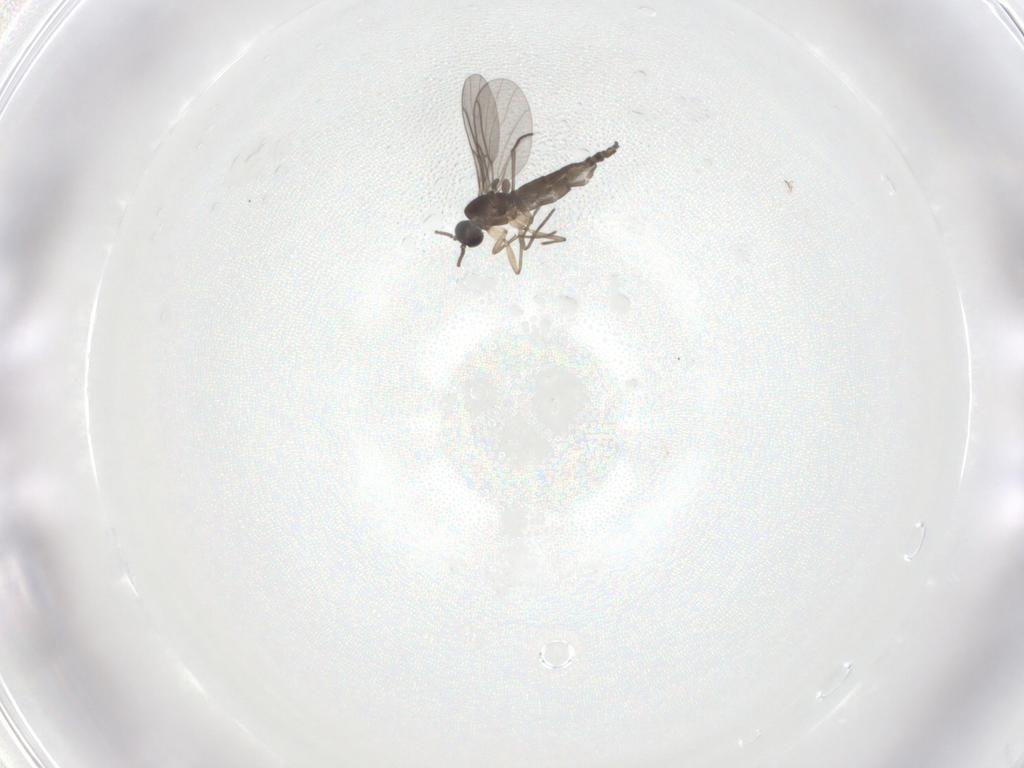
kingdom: Animalia
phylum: Arthropoda
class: Insecta
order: Diptera
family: Sciaridae
